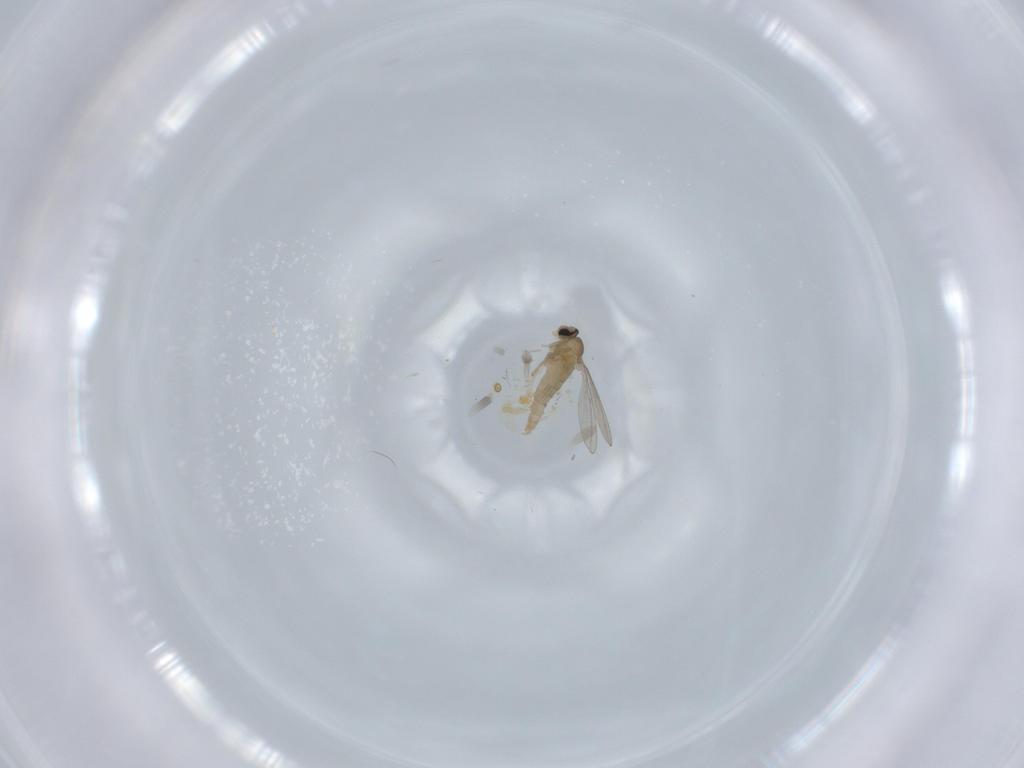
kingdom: Animalia
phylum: Arthropoda
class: Insecta
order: Diptera
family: Cecidomyiidae
